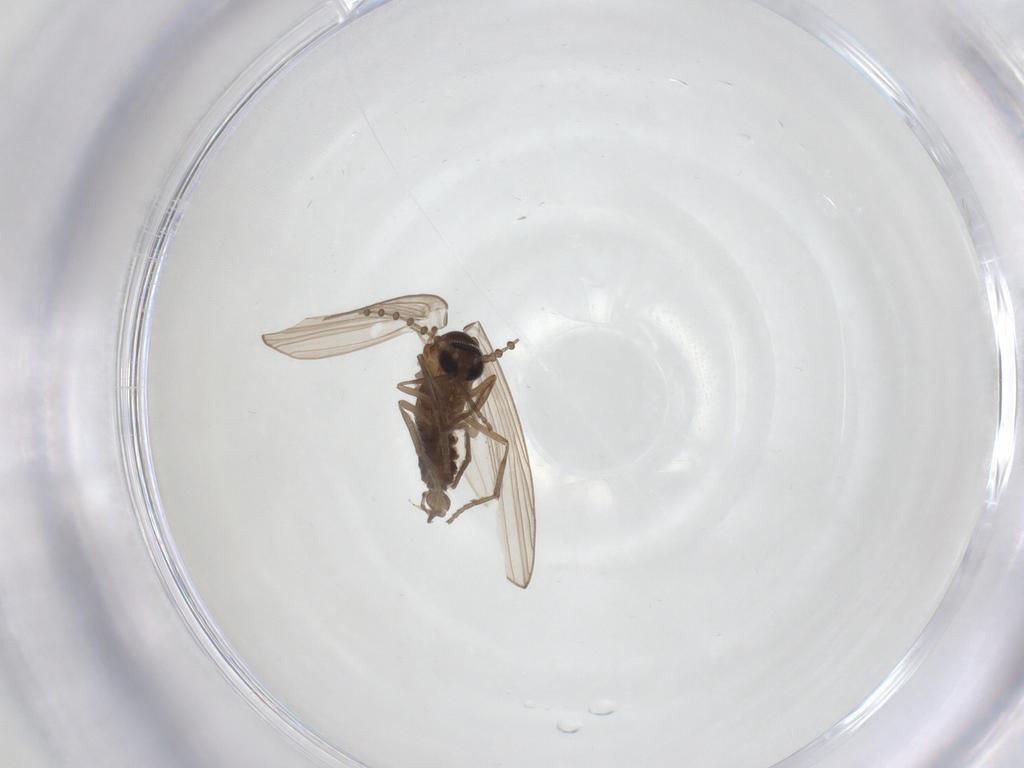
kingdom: Animalia
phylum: Arthropoda
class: Insecta
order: Diptera
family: Psychodidae
